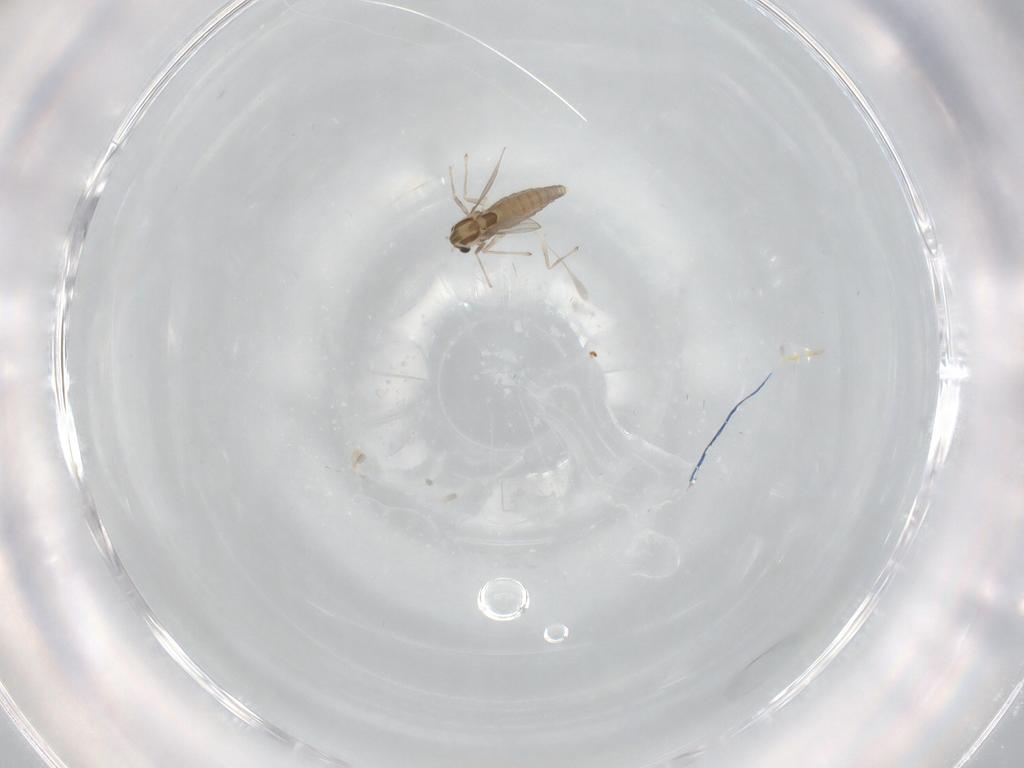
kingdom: Animalia
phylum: Arthropoda
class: Insecta
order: Diptera
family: Chironomidae
